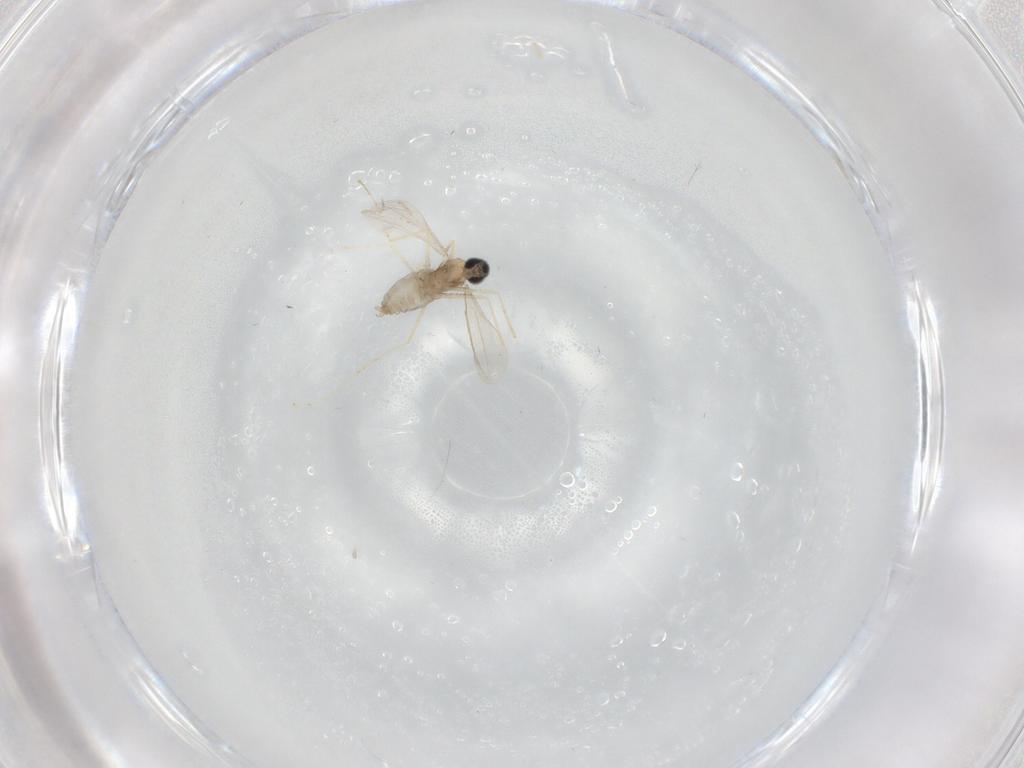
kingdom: Animalia
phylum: Arthropoda
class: Insecta
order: Diptera
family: Cecidomyiidae
